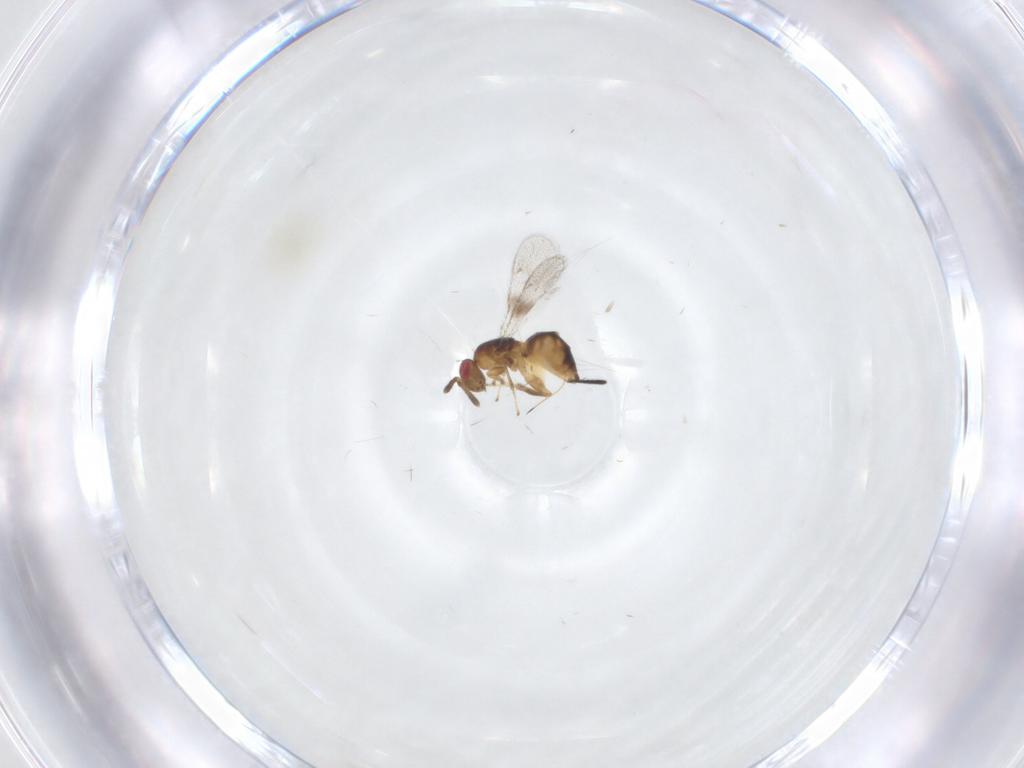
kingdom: Animalia
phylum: Arthropoda
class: Insecta
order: Hymenoptera
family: Torymidae
